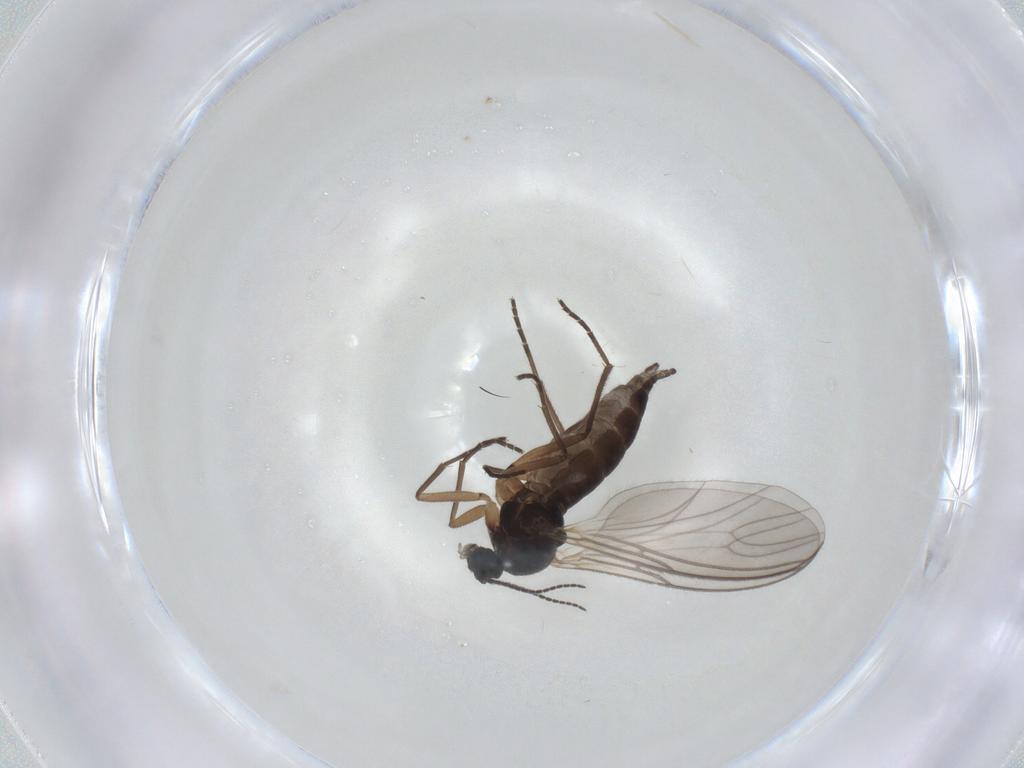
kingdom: Animalia
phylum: Arthropoda
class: Insecta
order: Diptera
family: Sciaridae
